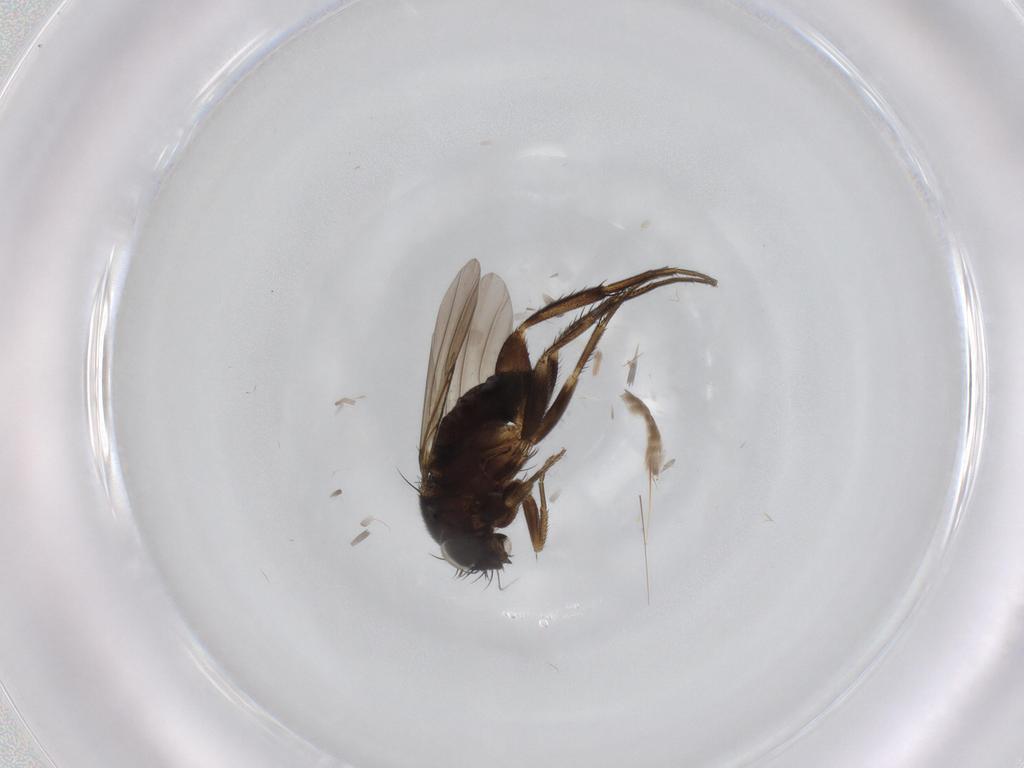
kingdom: Animalia
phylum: Arthropoda
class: Insecta
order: Diptera
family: Phoridae
